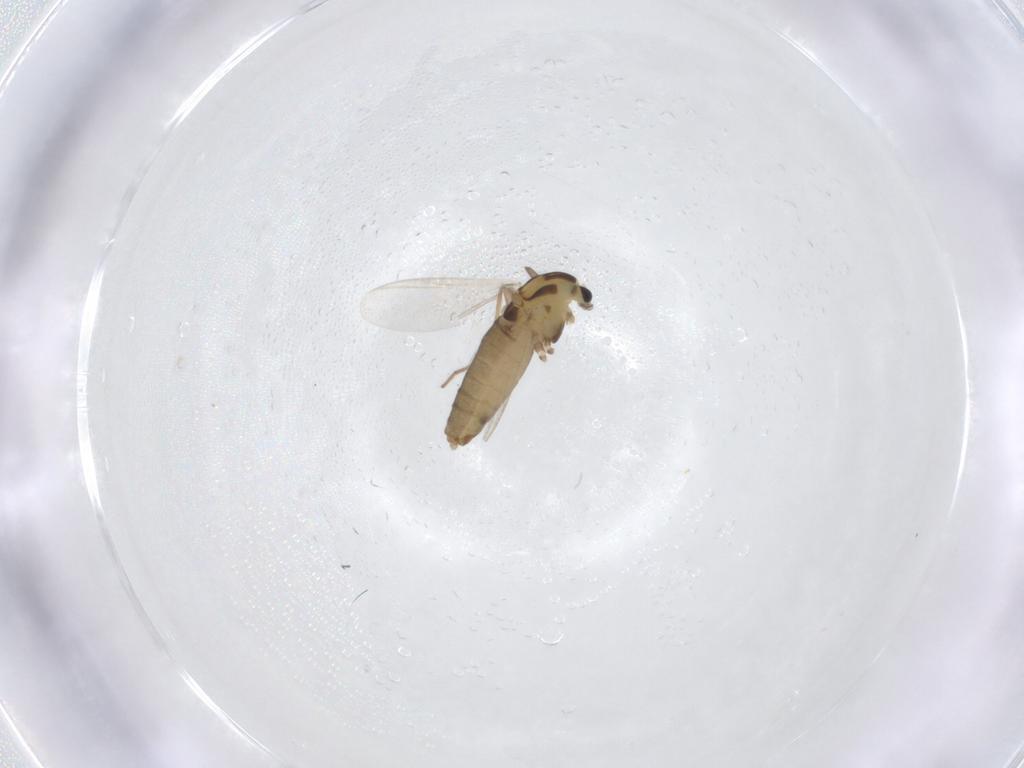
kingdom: Animalia
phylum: Arthropoda
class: Insecta
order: Diptera
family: Chironomidae
